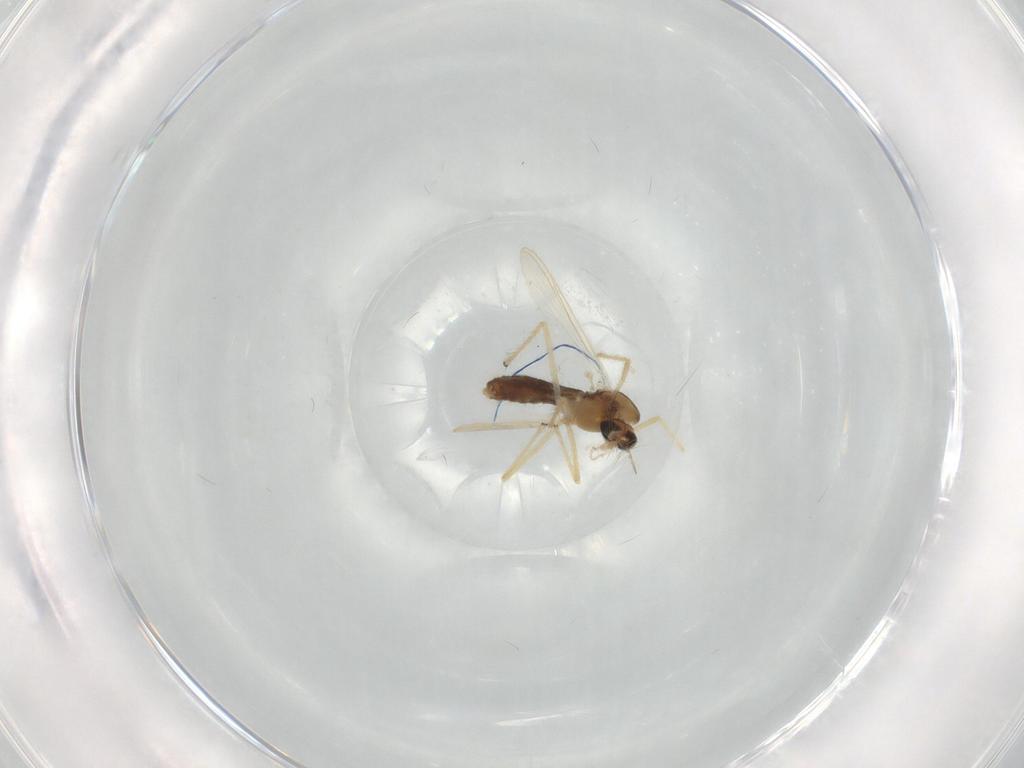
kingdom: Animalia
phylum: Arthropoda
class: Insecta
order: Diptera
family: Chironomidae
